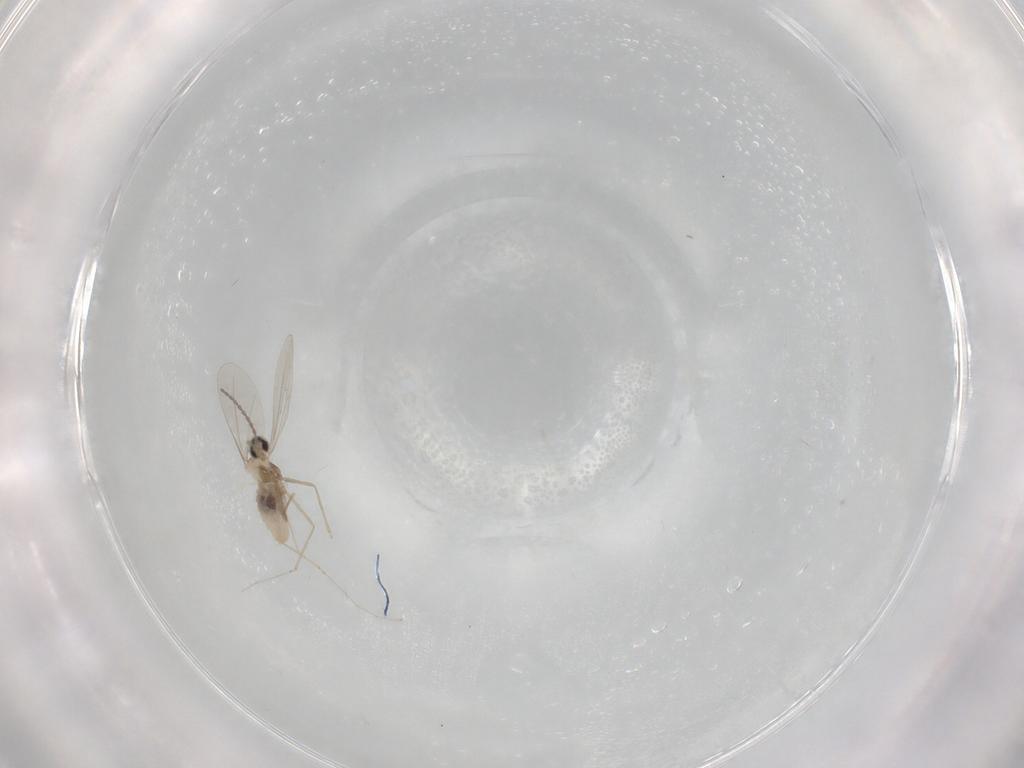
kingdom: Animalia
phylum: Arthropoda
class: Insecta
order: Diptera
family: Cecidomyiidae
